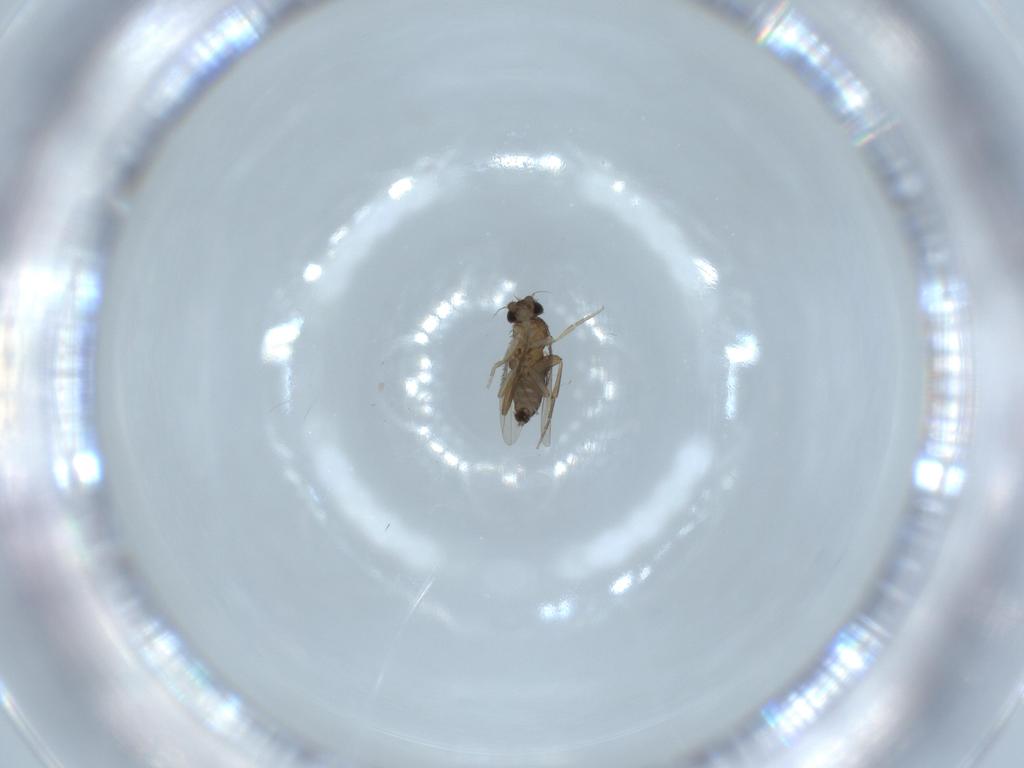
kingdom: Animalia
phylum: Arthropoda
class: Insecta
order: Diptera
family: Phoridae
